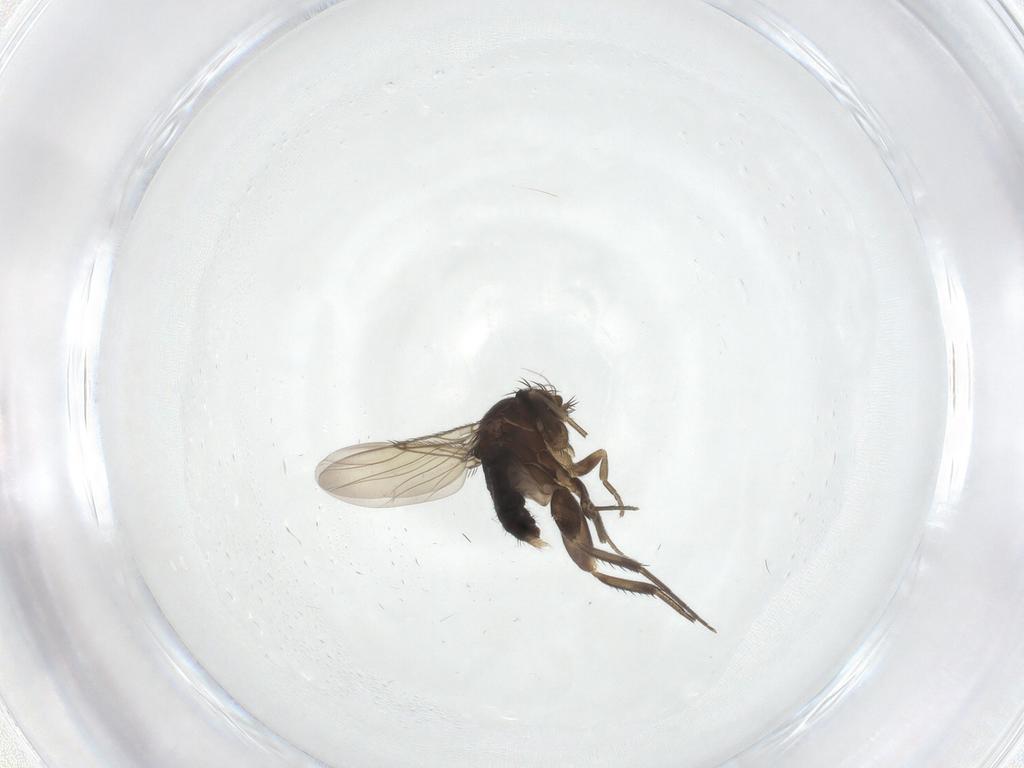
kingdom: Animalia
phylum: Arthropoda
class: Insecta
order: Diptera
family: Phoridae
